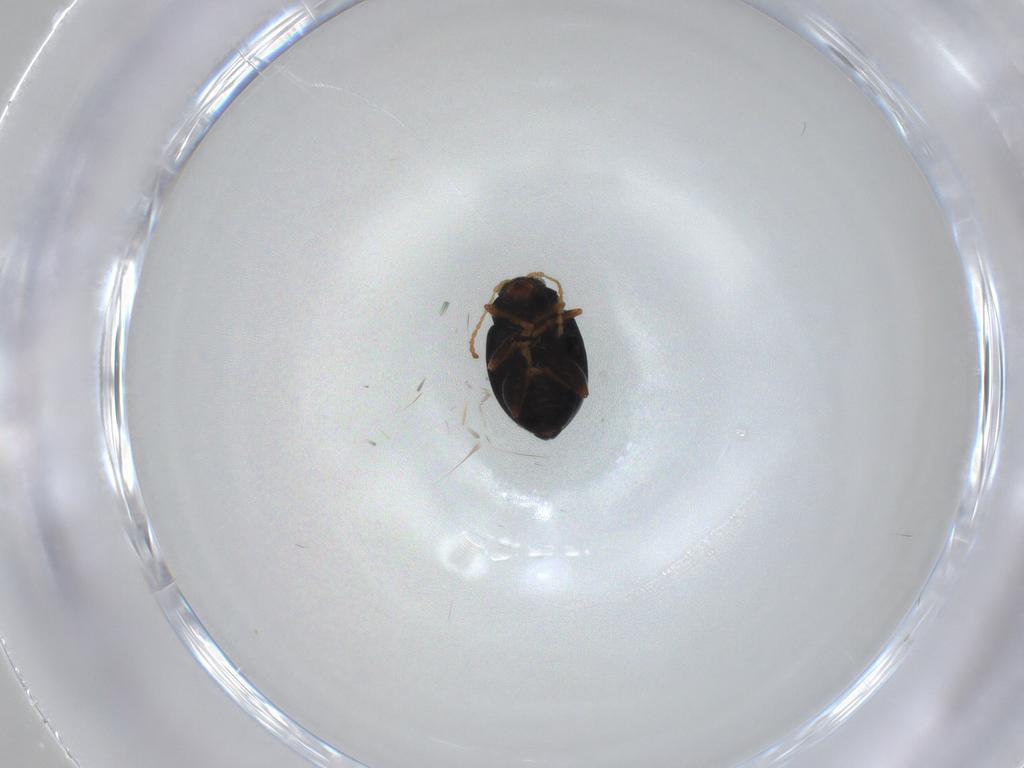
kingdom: Animalia
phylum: Arthropoda
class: Insecta
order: Coleoptera
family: Chrysomelidae
